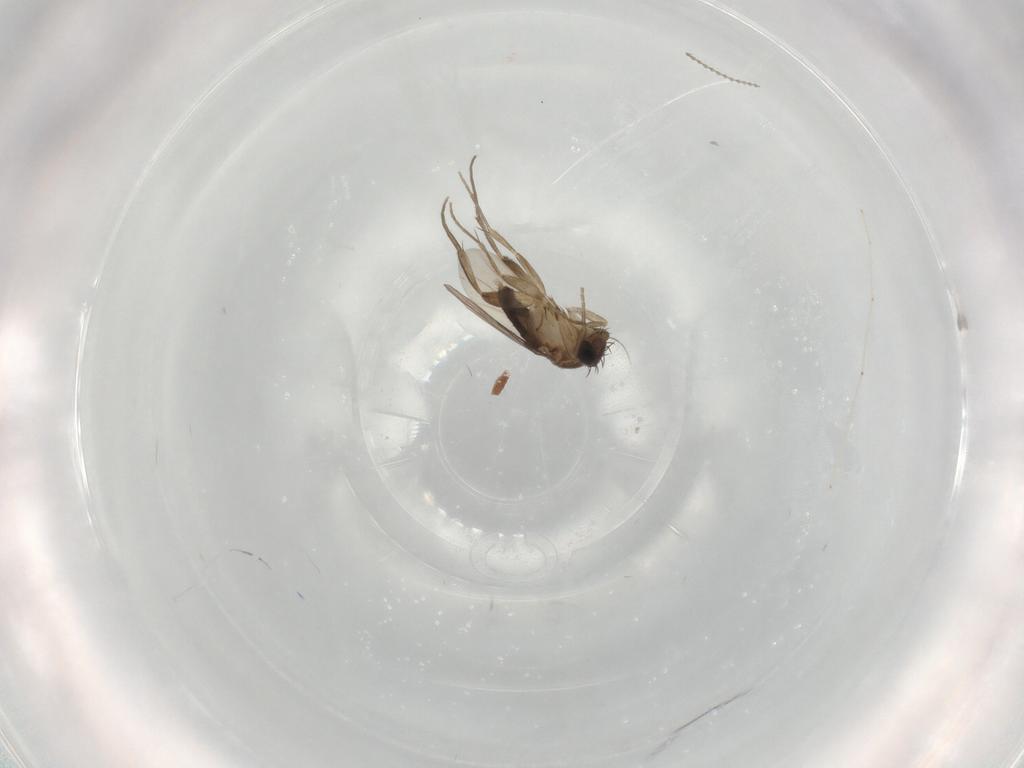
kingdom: Animalia
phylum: Arthropoda
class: Insecta
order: Diptera
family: Phoridae
